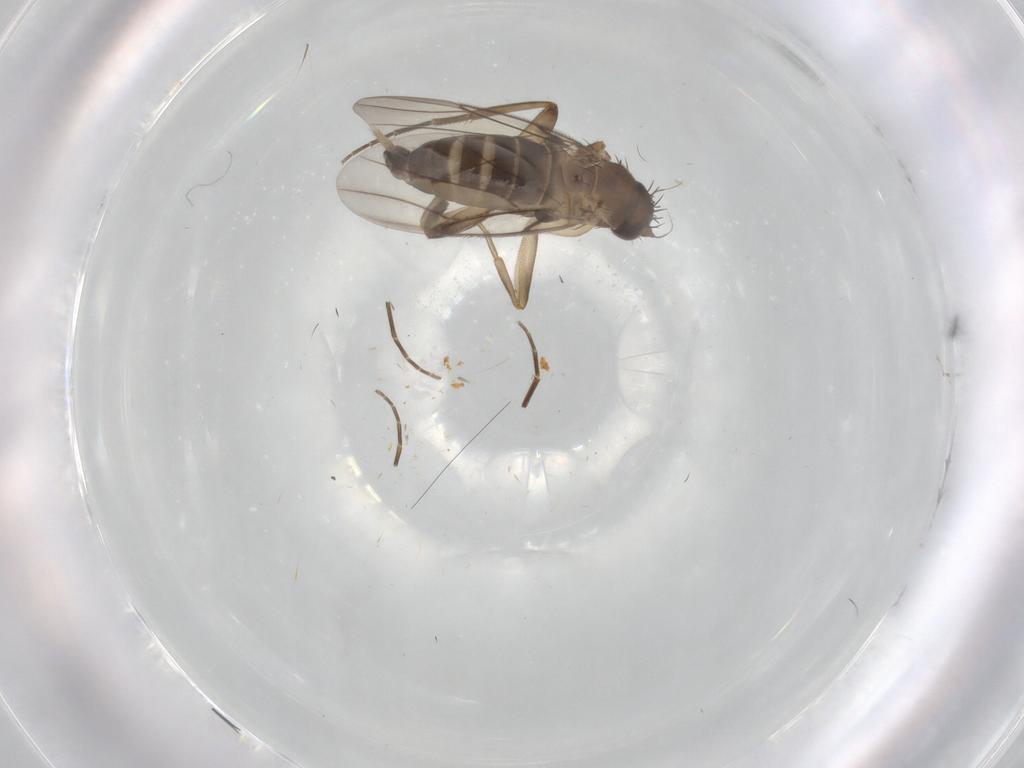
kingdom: Animalia
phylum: Arthropoda
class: Insecta
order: Diptera
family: Phoridae
